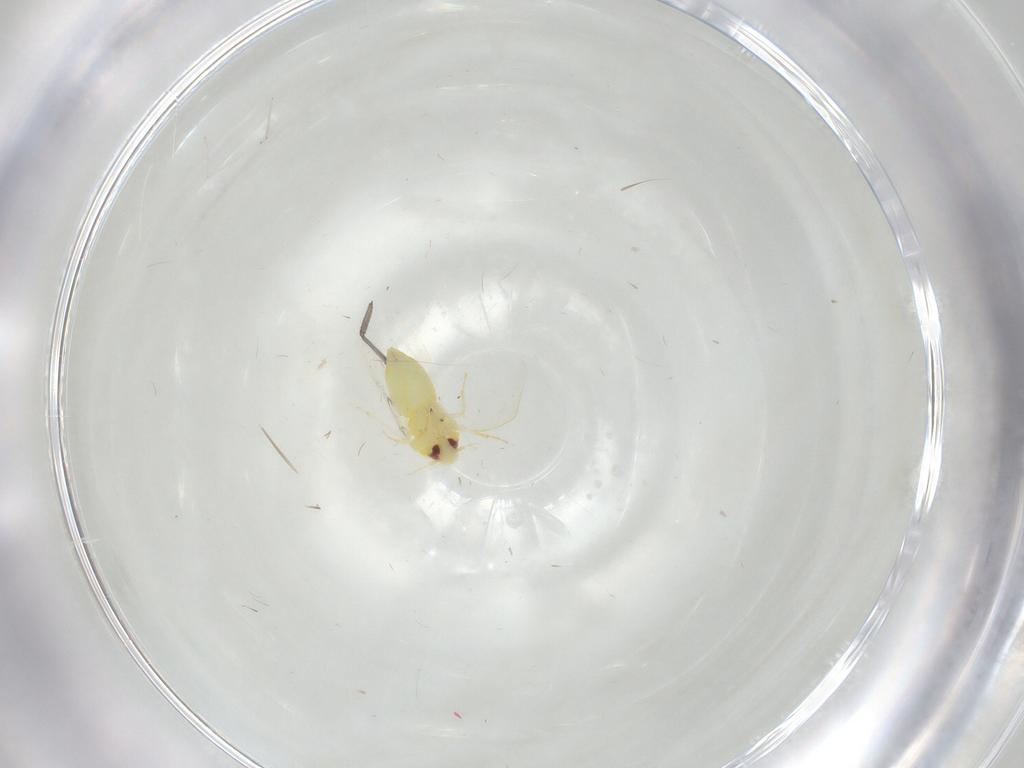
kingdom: Animalia
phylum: Arthropoda
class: Insecta
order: Hemiptera
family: Aleyrodidae
